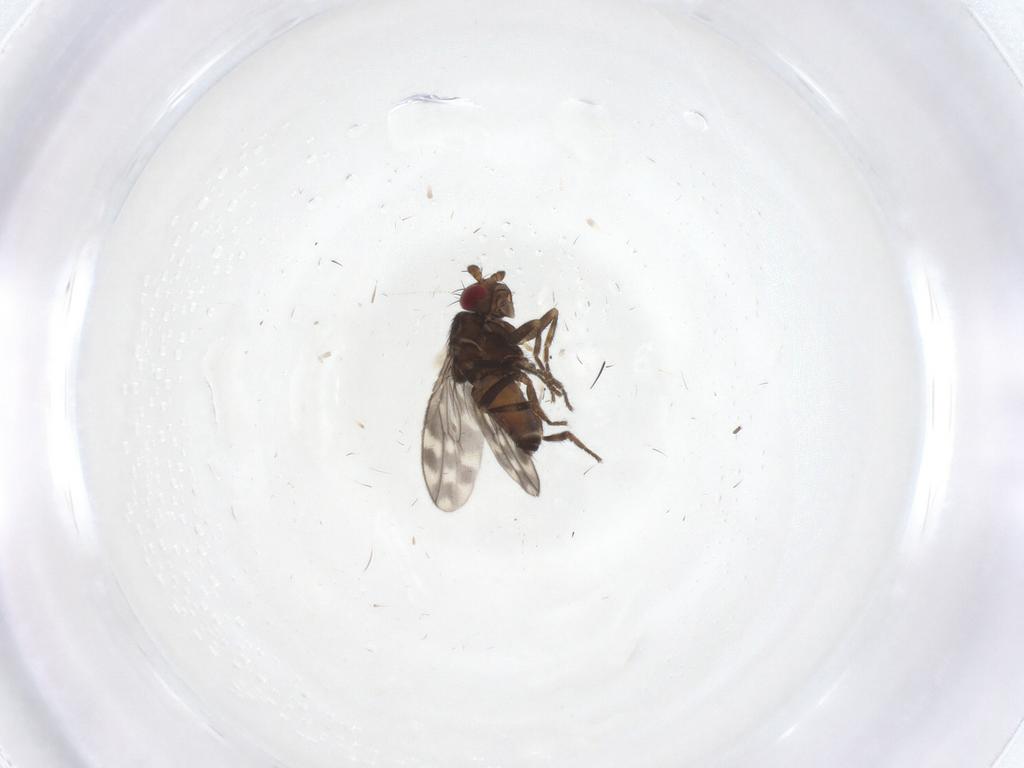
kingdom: Animalia
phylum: Arthropoda
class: Insecta
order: Diptera
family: Sphaeroceridae
